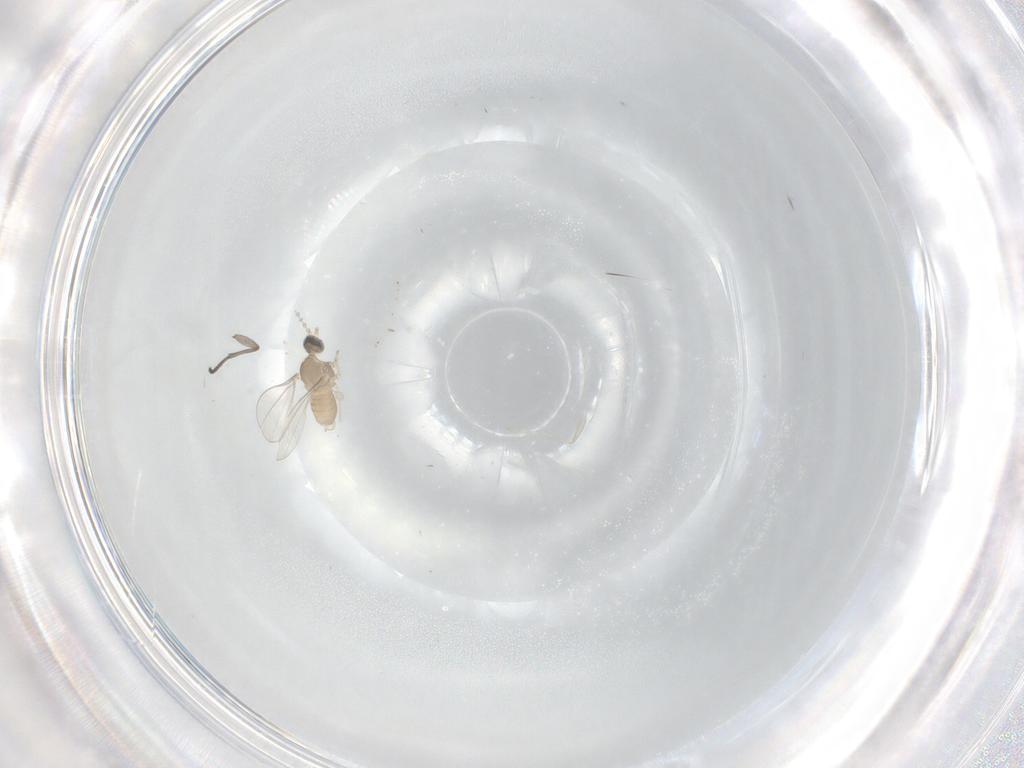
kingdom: Animalia
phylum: Arthropoda
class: Insecta
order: Diptera
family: Sciaridae
